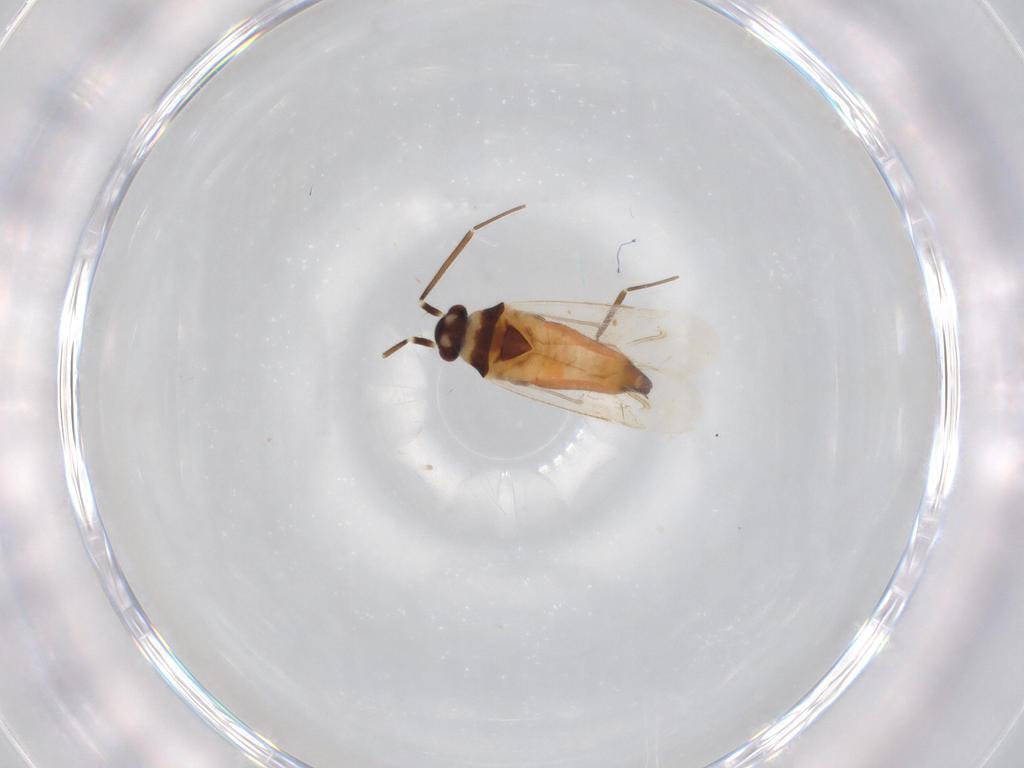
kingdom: Animalia
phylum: Arthropoda
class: Insecta
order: Hemiptera
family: Miridae
